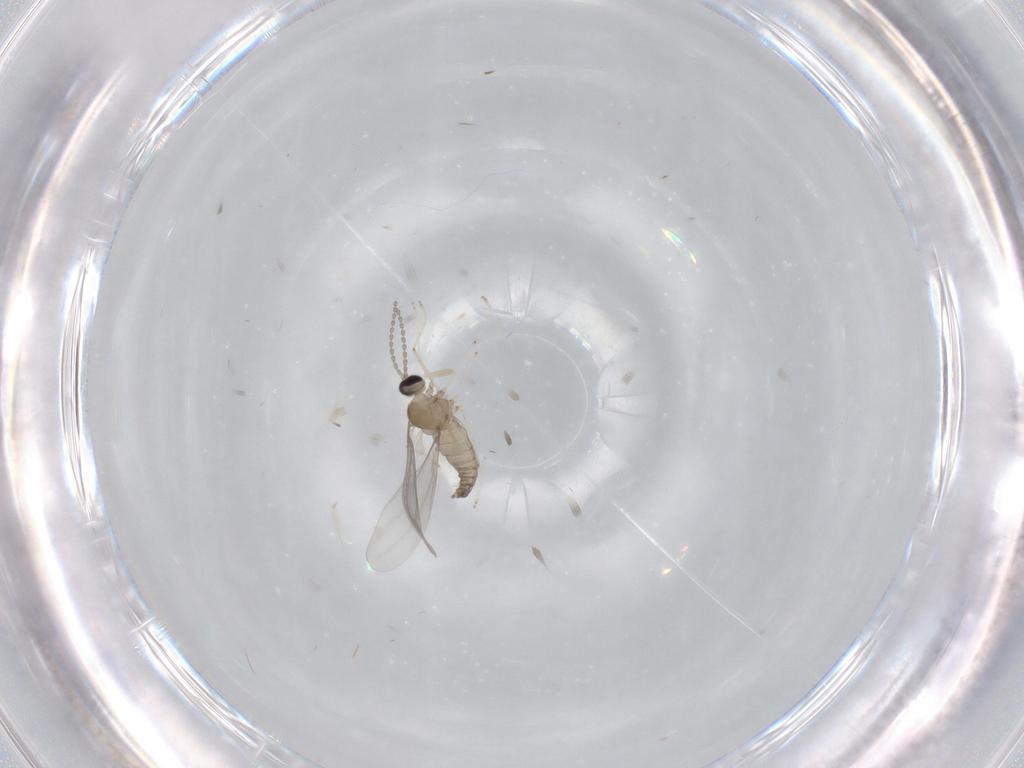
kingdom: Animalia
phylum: Arthropoda
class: Insecta
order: Diptera
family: Phoridae
